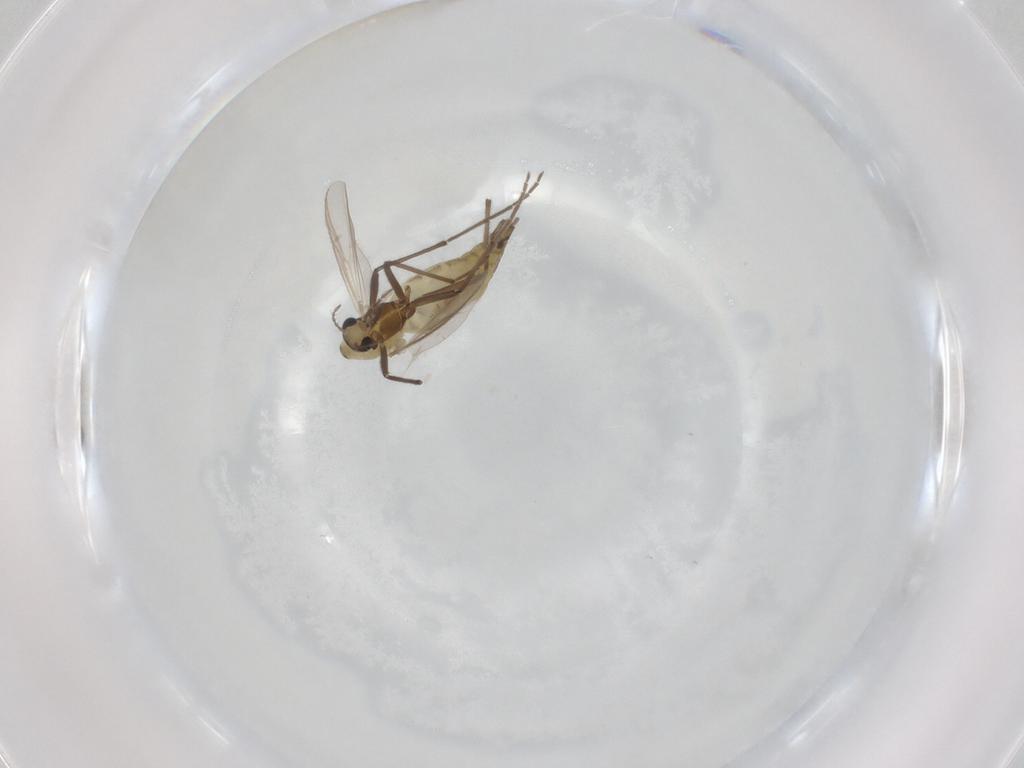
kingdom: Animalia
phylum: Arthropoda
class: Insecta
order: Diptera
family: Chironomidae
